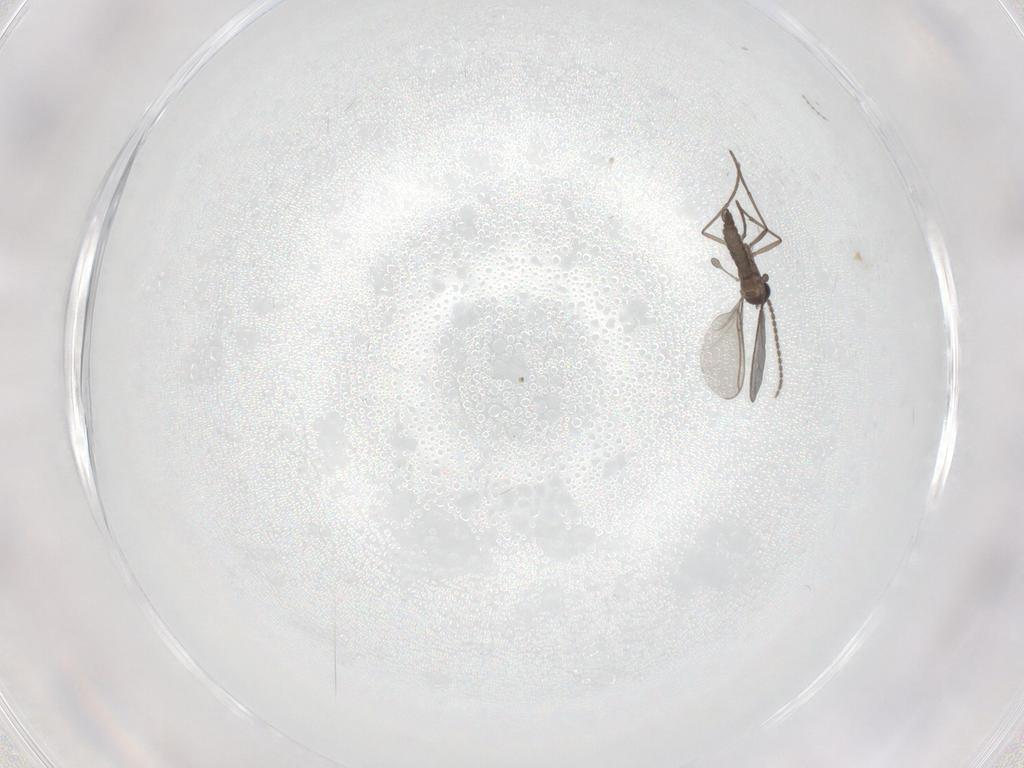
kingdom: Animalia
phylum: Arthropoda
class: Insecta
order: Diptera
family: Sciaridae
